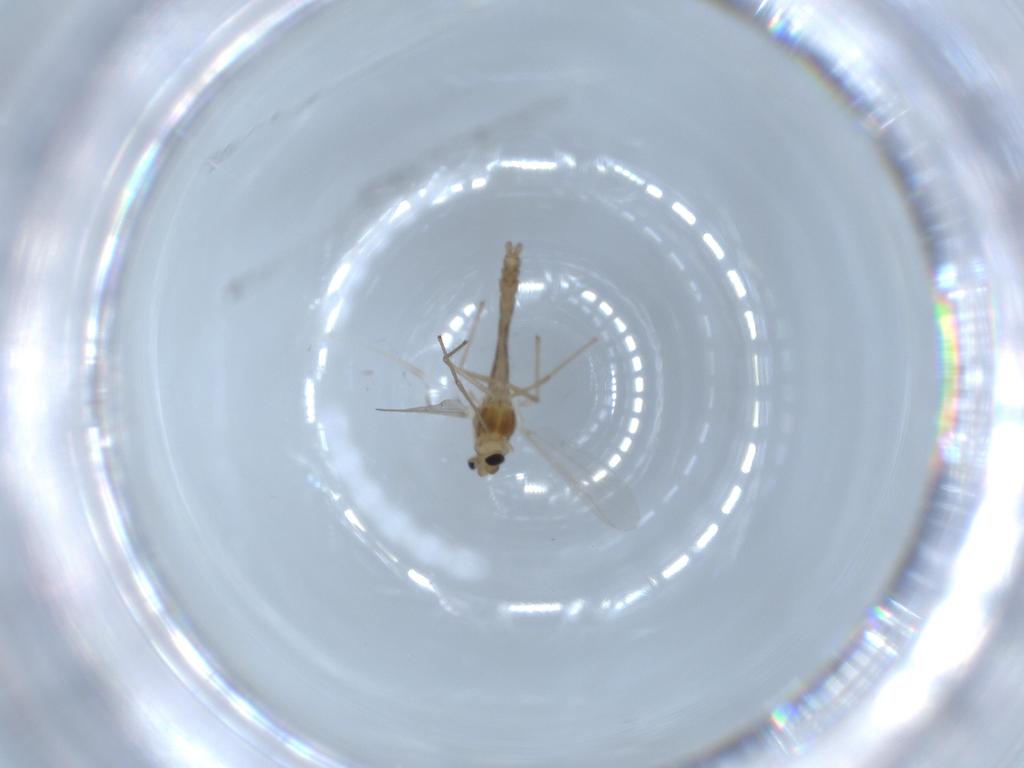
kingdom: Animalia
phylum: Arthropoda
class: Insecta
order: Diptera
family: Chironomidae
